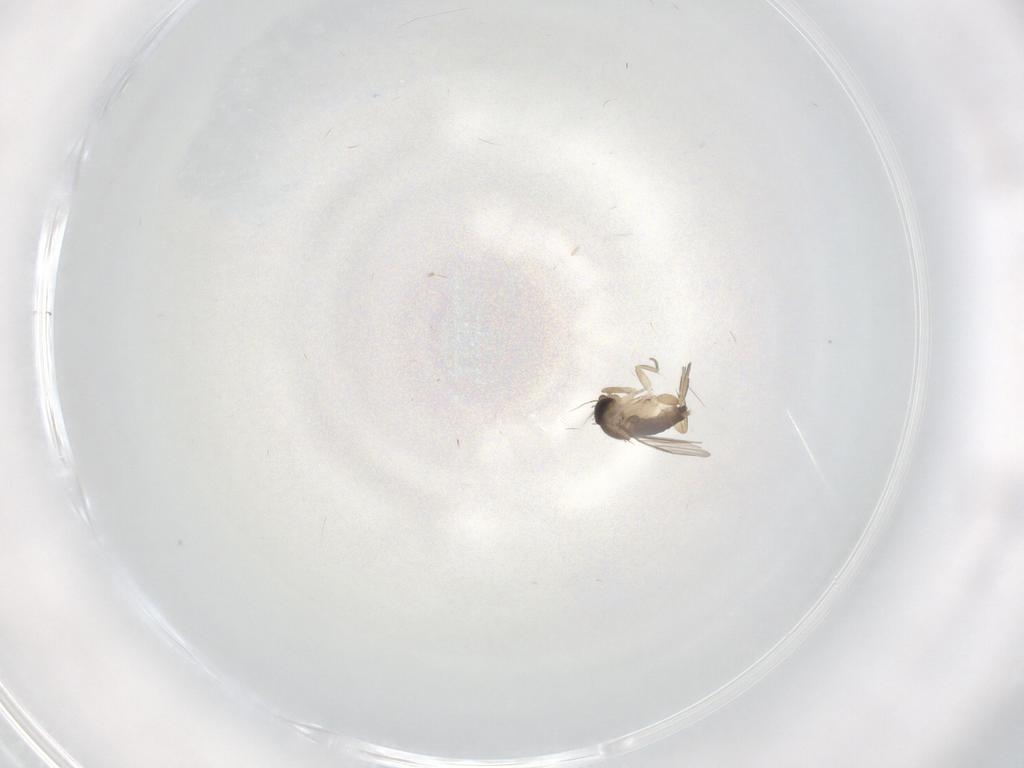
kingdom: Animalia
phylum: Arthropoda
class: Insecta
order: Diptera
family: Phoridae
